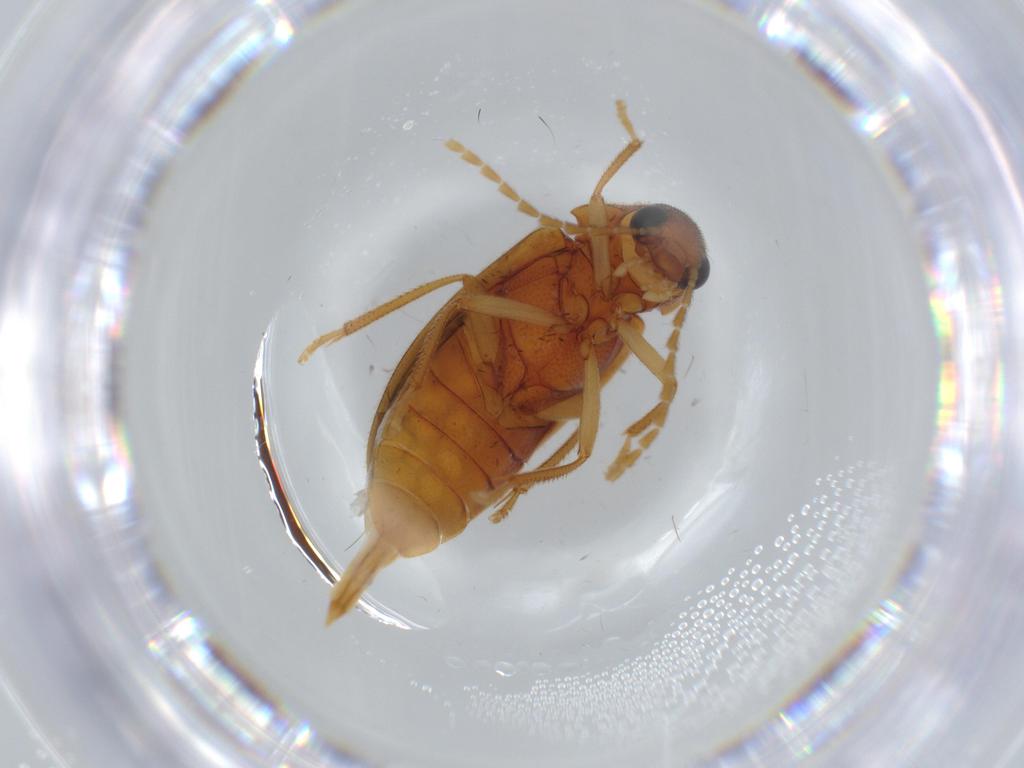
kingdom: Animalia
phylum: Arthropoda
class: Insecta
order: Coleoptera
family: Ptilodactylidae
